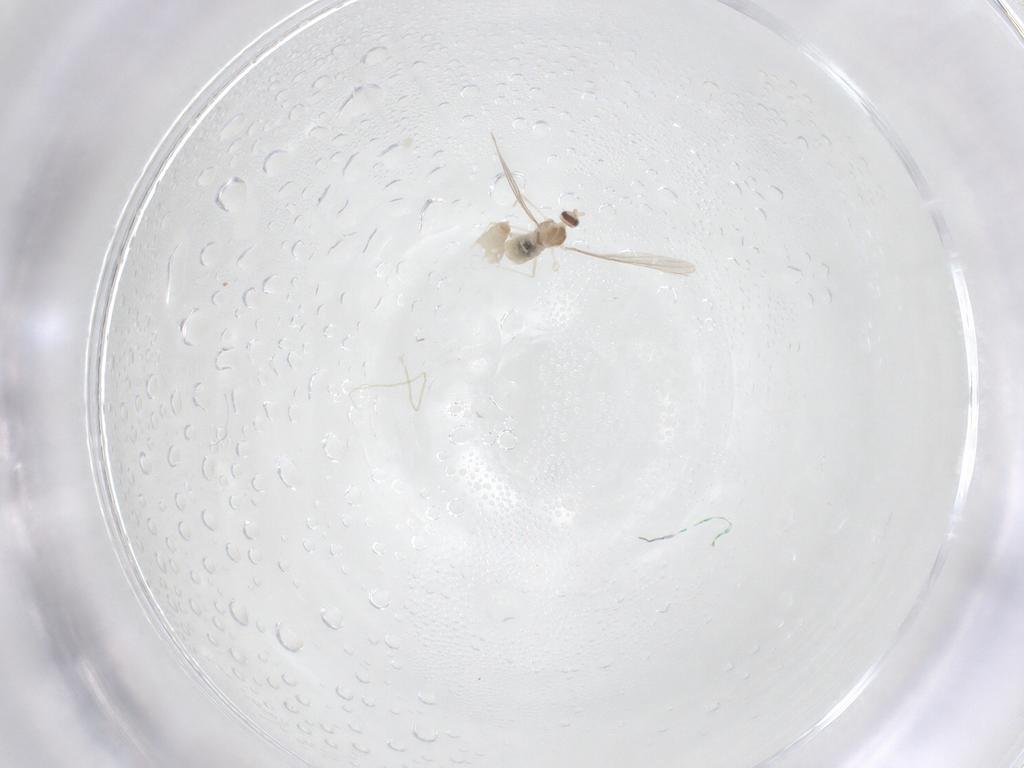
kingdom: Animalia
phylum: Arthropoda
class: Insecta
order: Diptera
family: Cecidomyiidae
